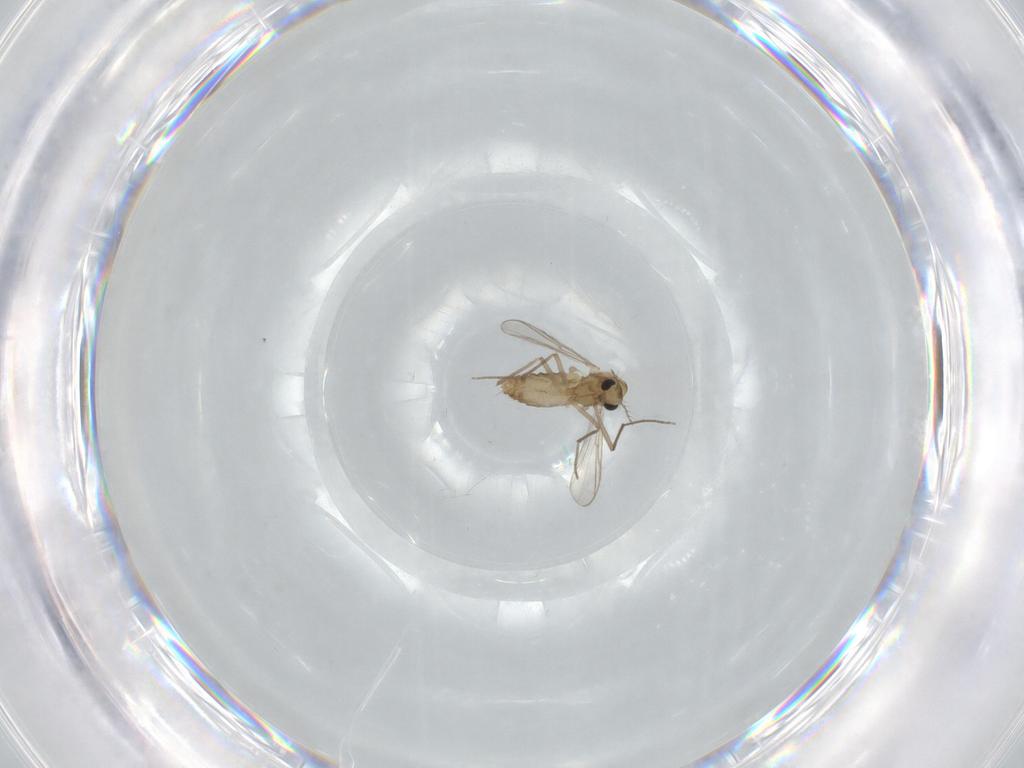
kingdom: Animalia
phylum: Arthropoda
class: Insecta
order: Diptera
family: Chironomidae
